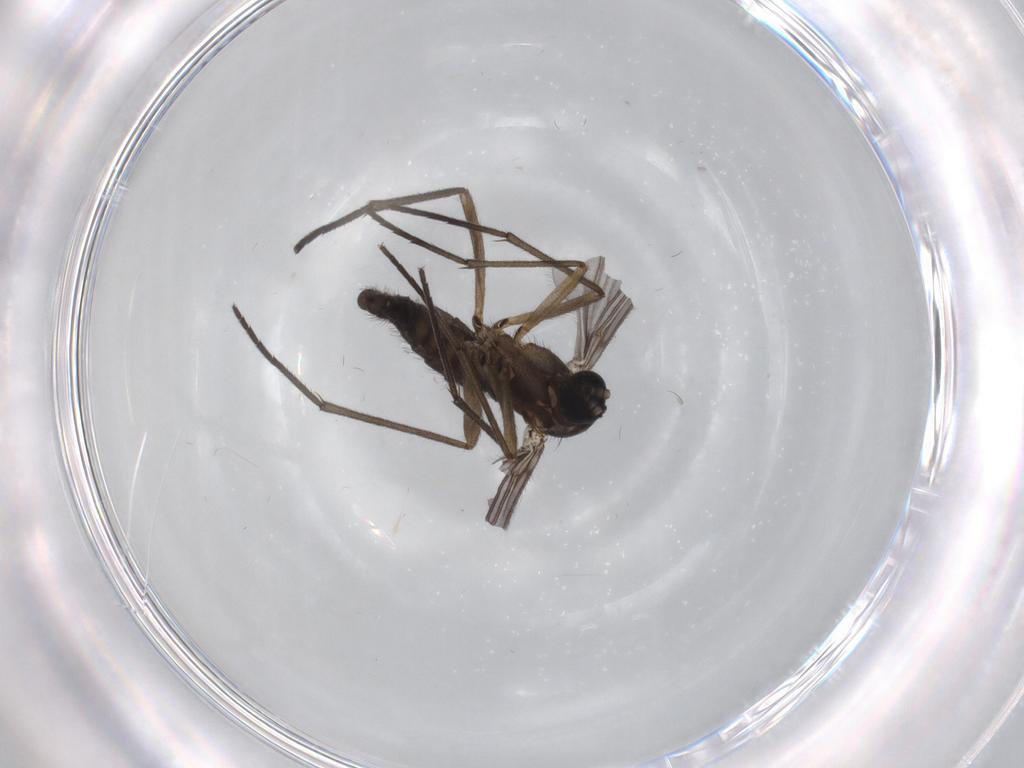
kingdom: Animalia
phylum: Arthropoda
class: Insecta
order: Diptera
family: Sciaridae
